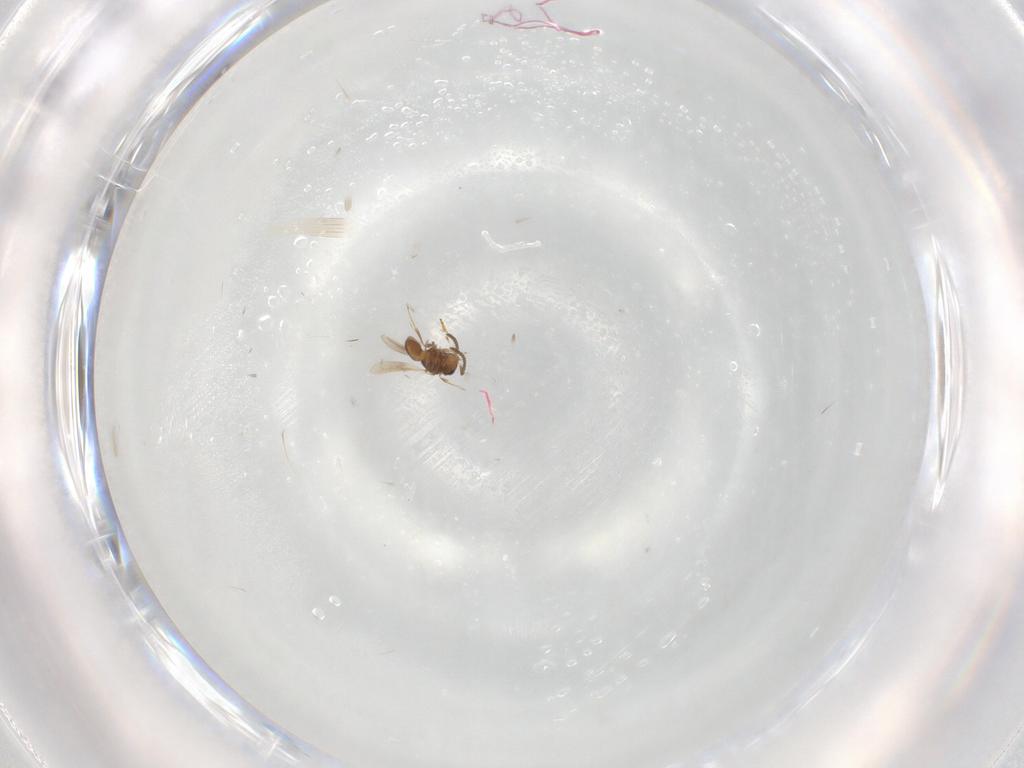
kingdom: Animalia
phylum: Arthropoda
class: Insecta
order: Hymenoptera
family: Scelionidae
